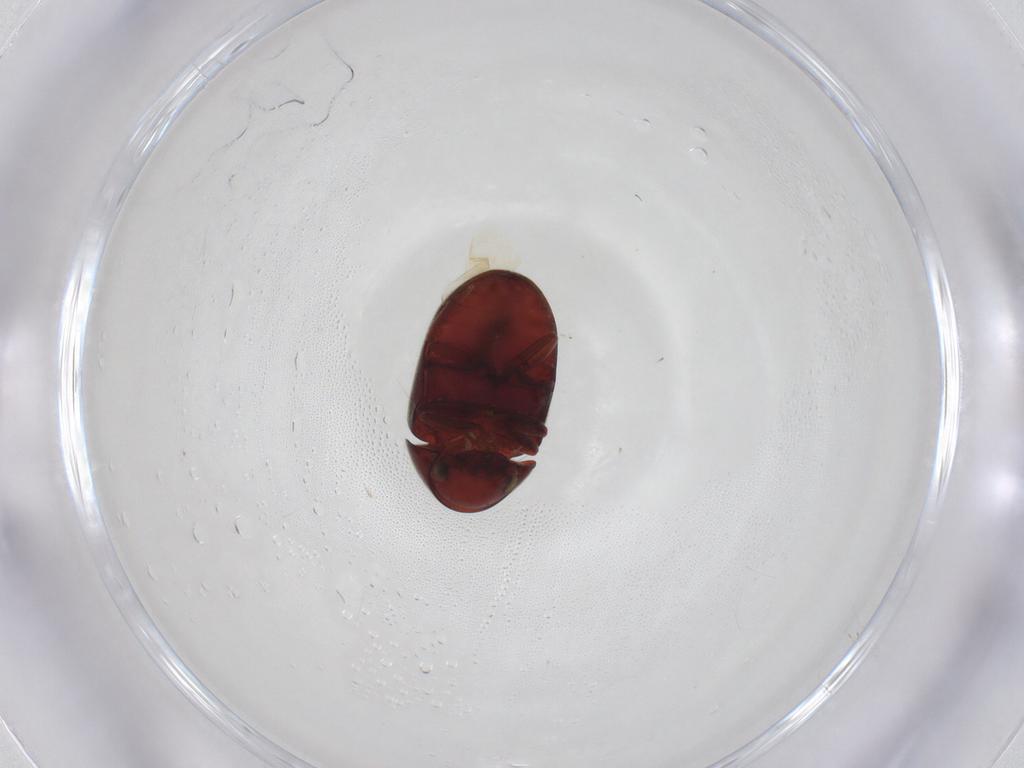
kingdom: Animalia
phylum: Arthropoda
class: Insecta
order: Coleoptera
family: Ptinidae
